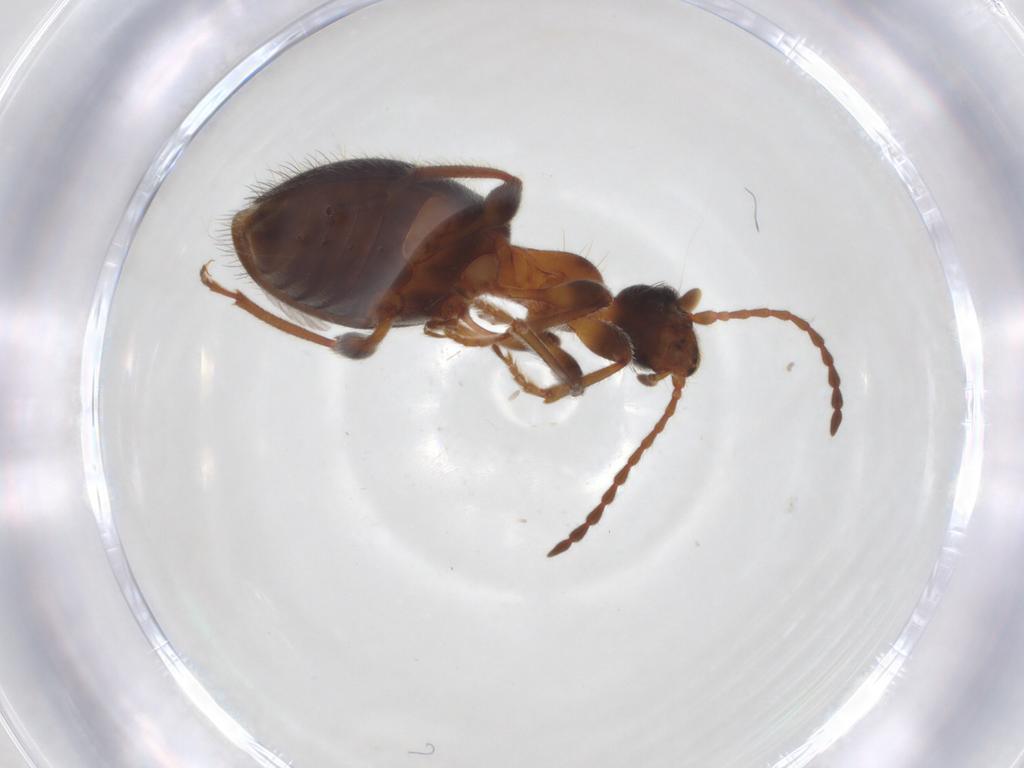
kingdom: Animalia
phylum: Arthropoda
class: Insecta
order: Coleoptera
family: Anthicidae
